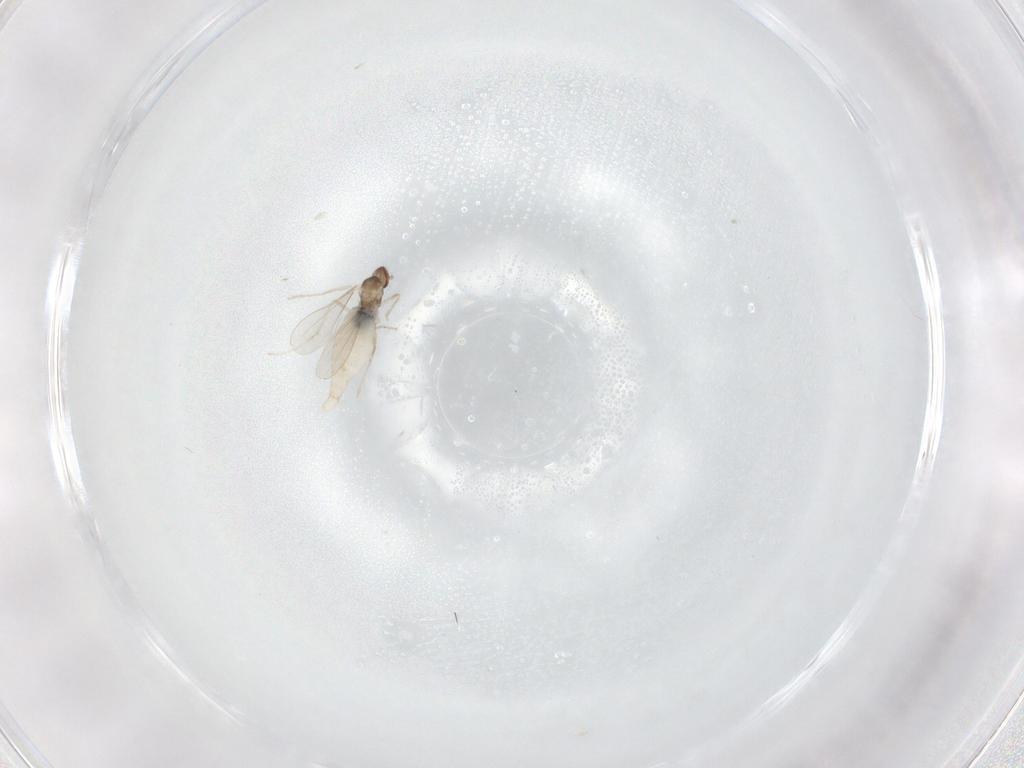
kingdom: Animalia
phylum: Arthropoda
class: Insecta
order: Diptera
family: Cecidomyiidae
